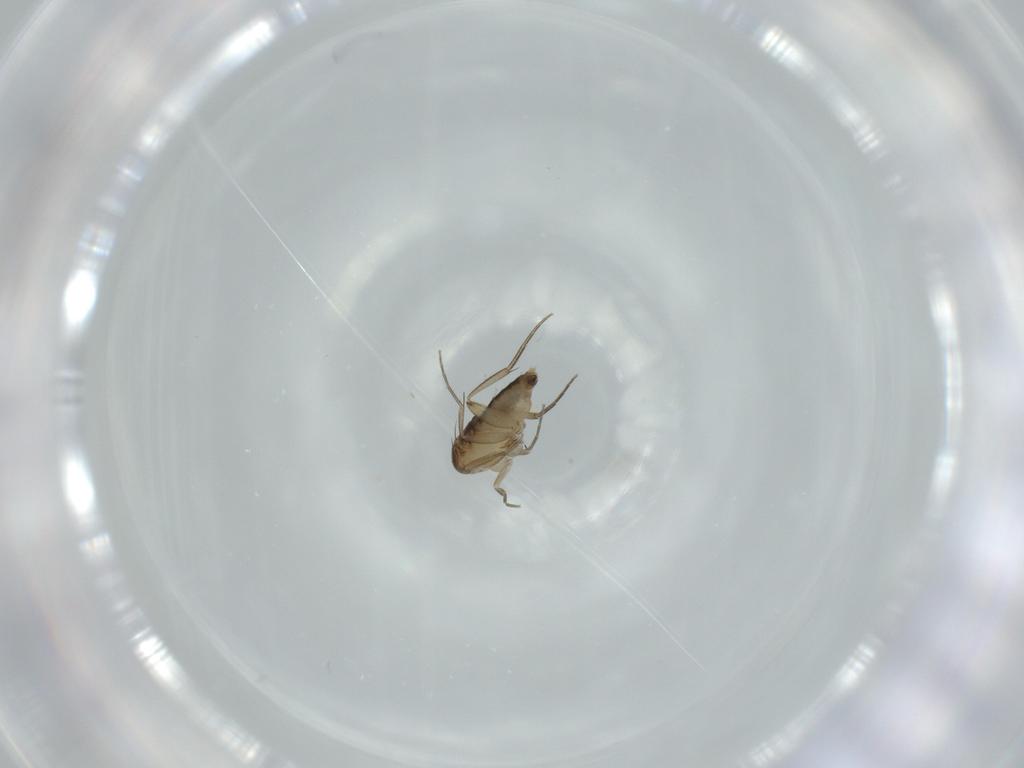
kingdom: Animalia
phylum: Arthropoda
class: Insecta
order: Diptera
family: Phoridae
